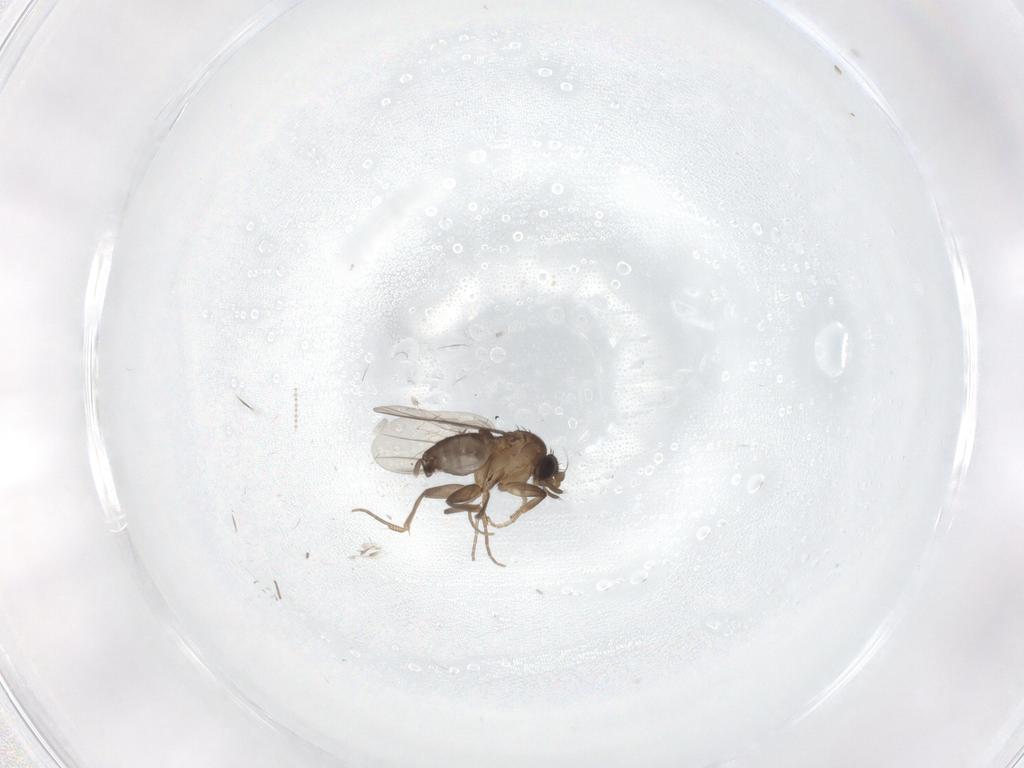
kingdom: Animalia
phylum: Arthropoda
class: Insecta
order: Diptera
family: Phoridae
